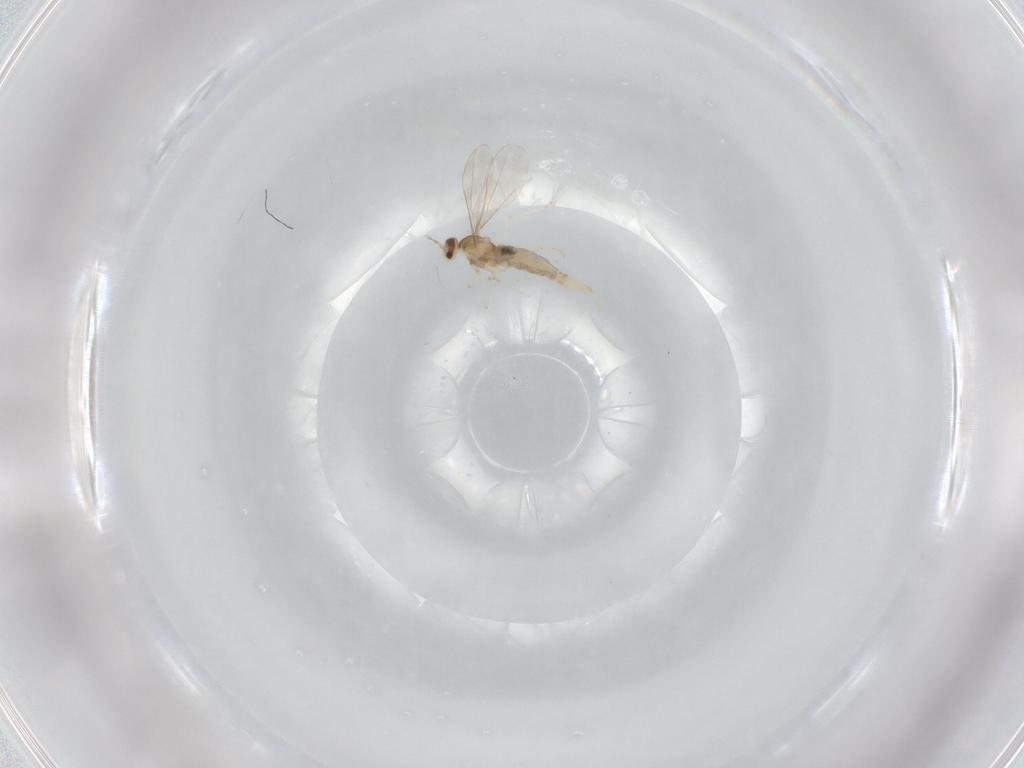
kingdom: Animalia
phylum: Arthropoda
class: Insecta
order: Diptera
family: Cecidomyiidae
